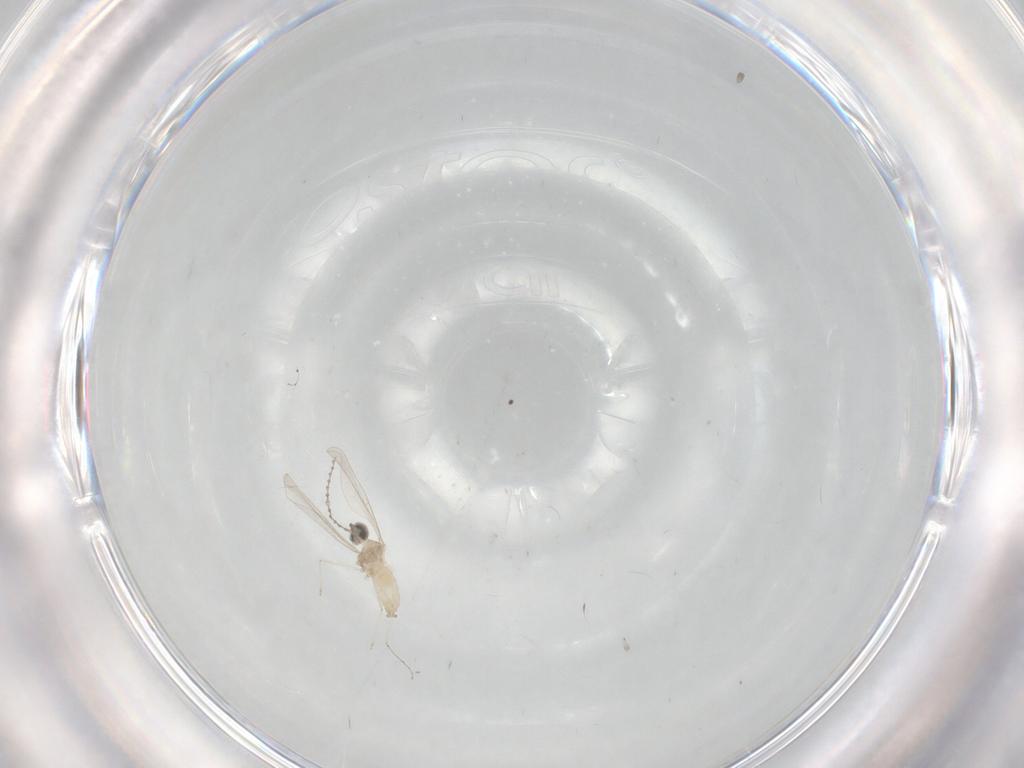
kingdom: Animalia
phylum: Arthropoda
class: Insecta
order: Diptera
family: Cecidomyiidae
